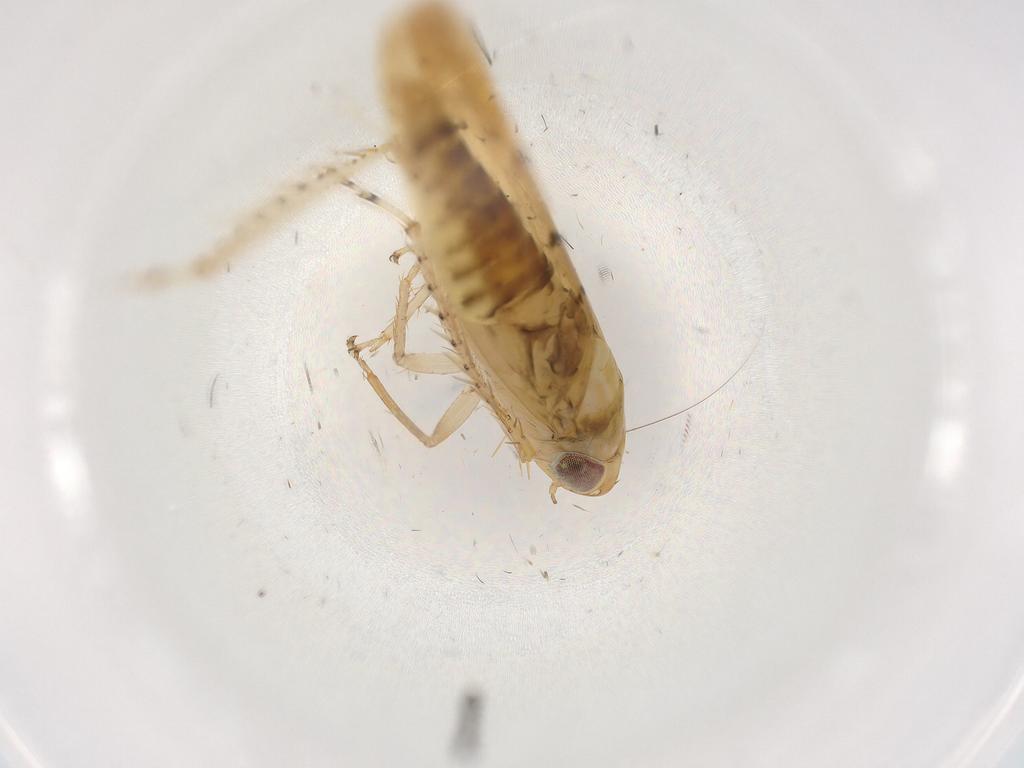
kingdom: Animalia
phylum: Arthropoda
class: Insecta
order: Hemiptera
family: Cicadellidae
